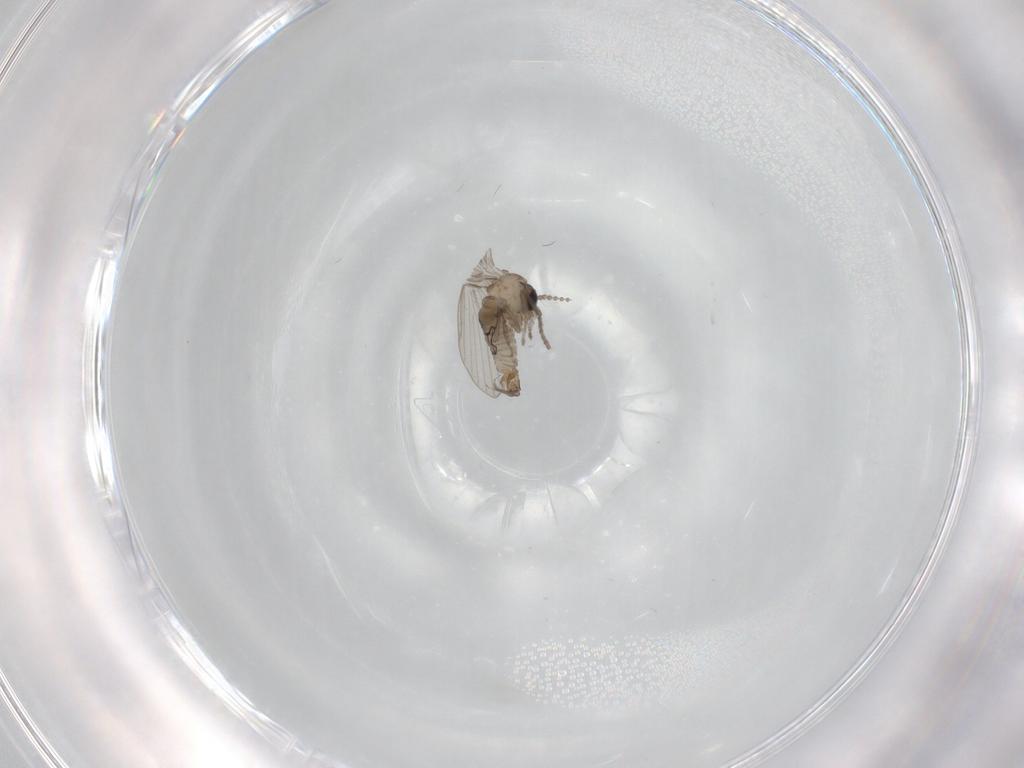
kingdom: Animalia
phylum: Arthropoda
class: Insecta
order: Diptera
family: Psychodidae
